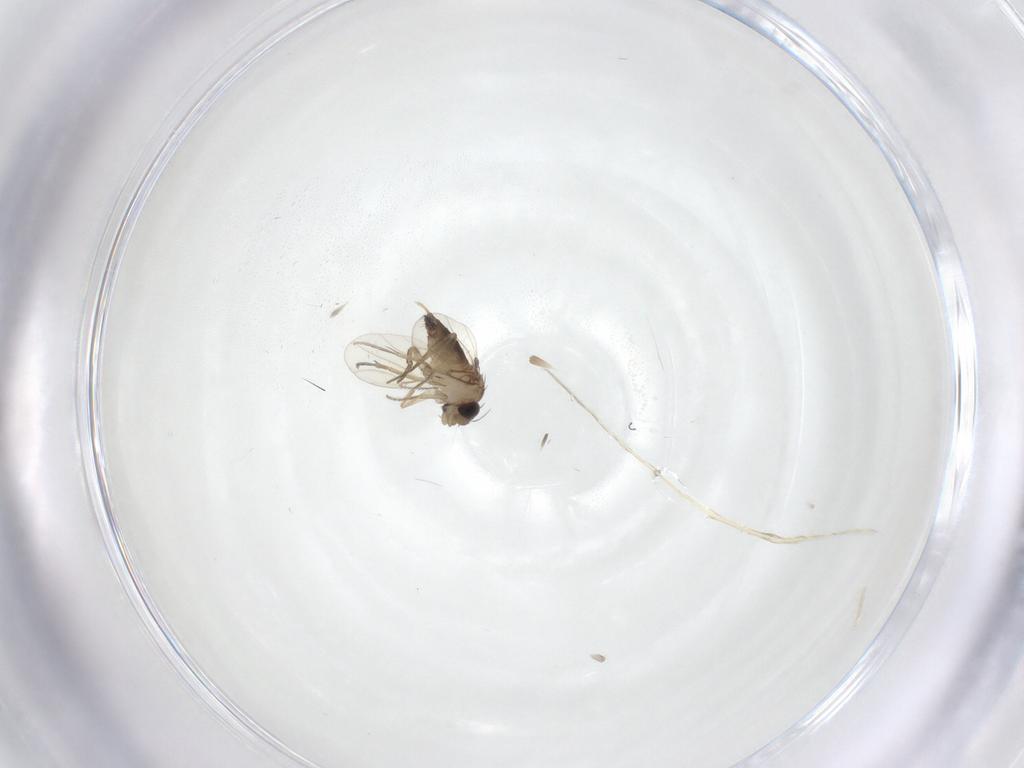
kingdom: Animalia
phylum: Arthropoda
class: Insecta
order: Diptera
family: Phoridae
